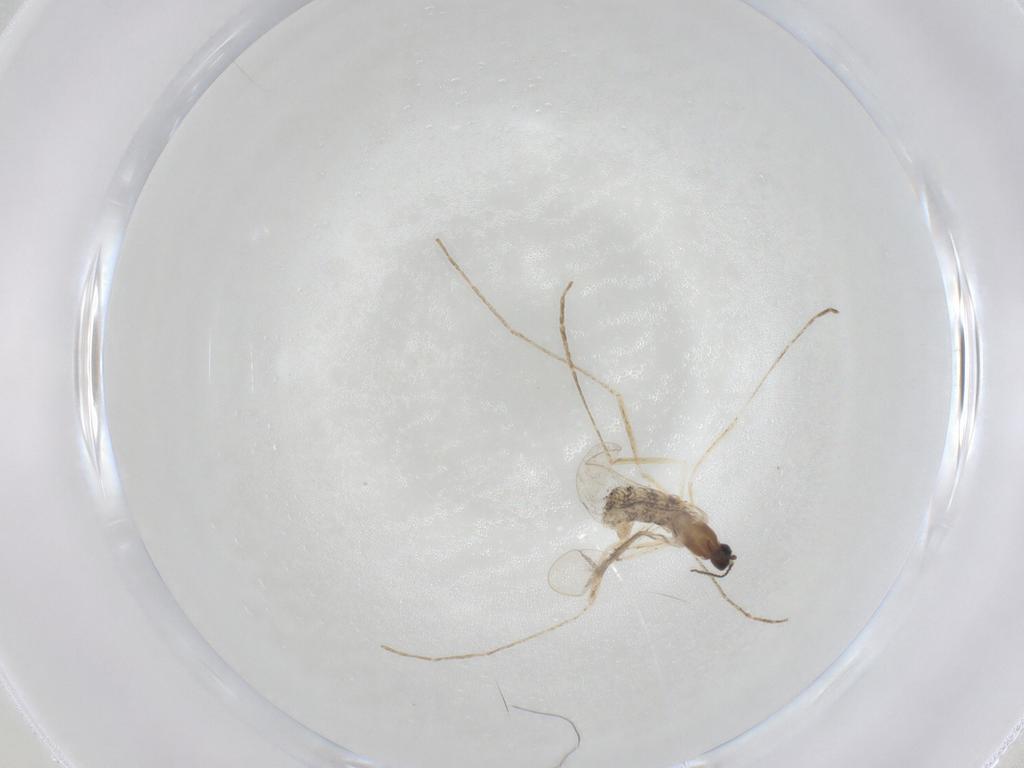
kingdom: Animalia
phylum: Arthropoda
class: Insecta
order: Diptera
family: Cecidomyiidae
